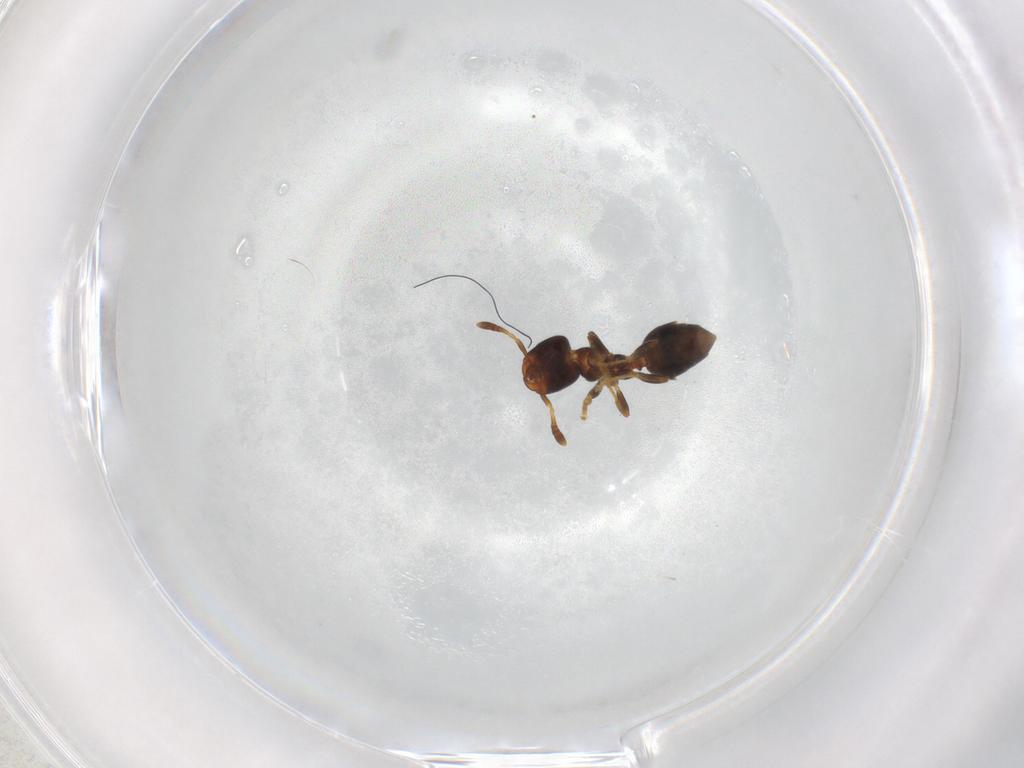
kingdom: Animalia
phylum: Arthropoda
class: Insecta
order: Hymenoptera
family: Formicidae
